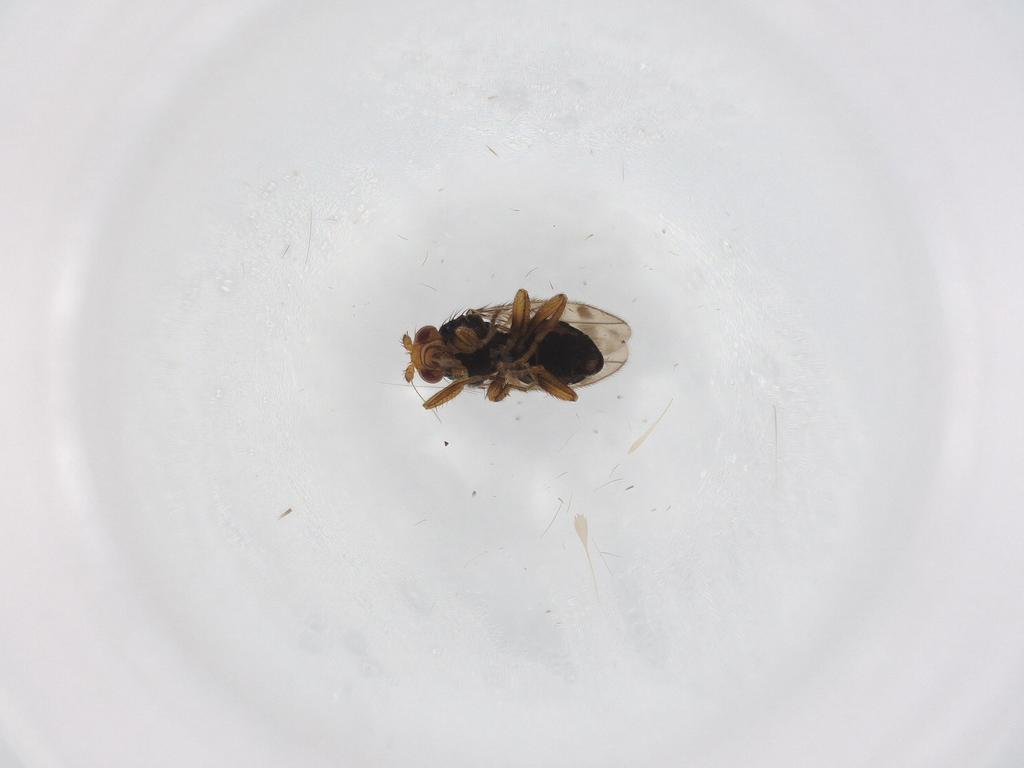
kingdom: Animalia
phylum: Arthropoda
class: Insecta
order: Diptera
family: Sphaeroceridae
